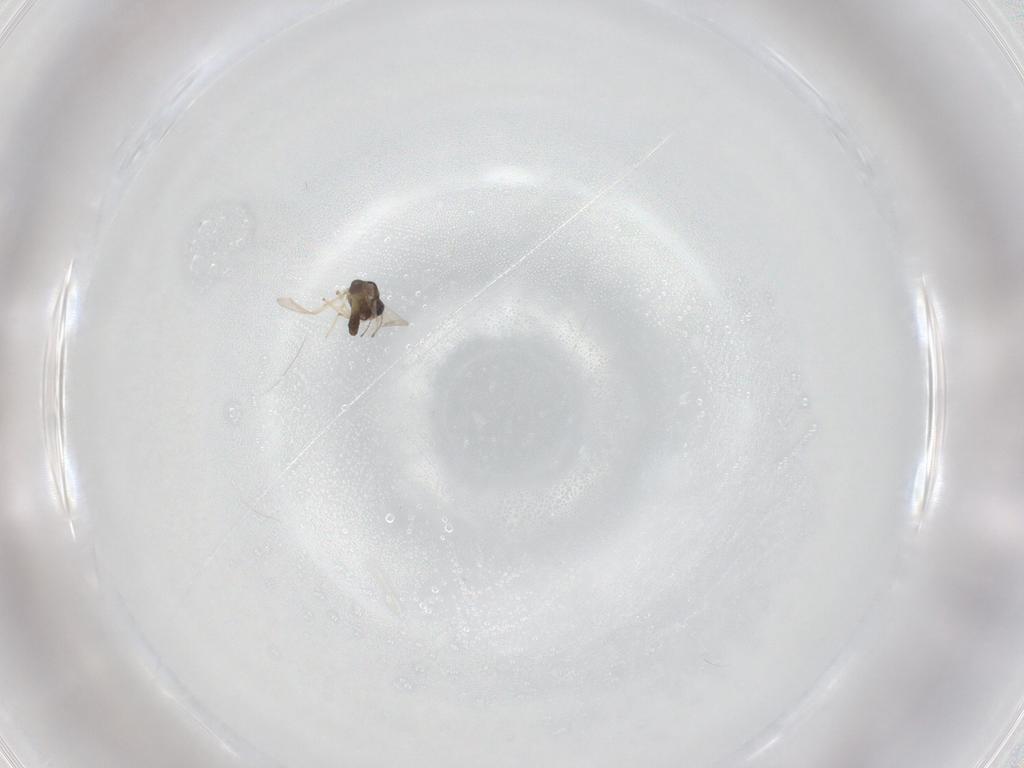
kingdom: Animalia
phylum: Arthropoda
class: Insecta
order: Diptera
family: Chironomidae
